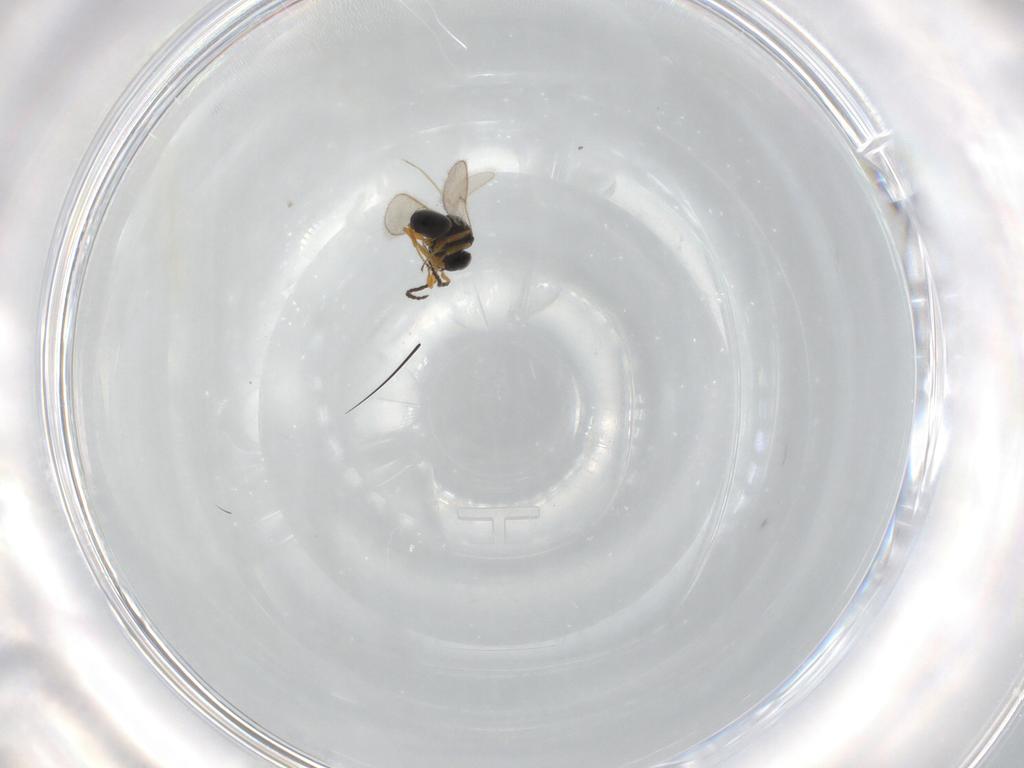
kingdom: Animalia
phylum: Arthropoda
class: Insecta
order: Hymenoptera
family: Scelionidae
